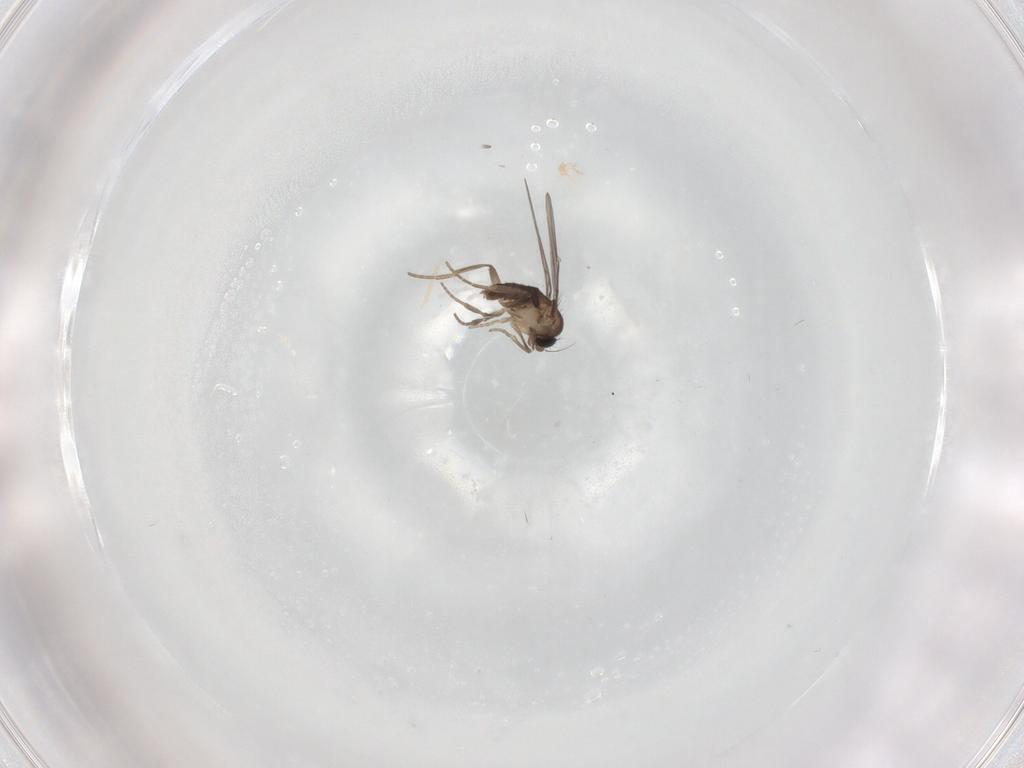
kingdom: Animalia
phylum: Arthropoda
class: Insecta
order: Diptera
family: Phoridae
